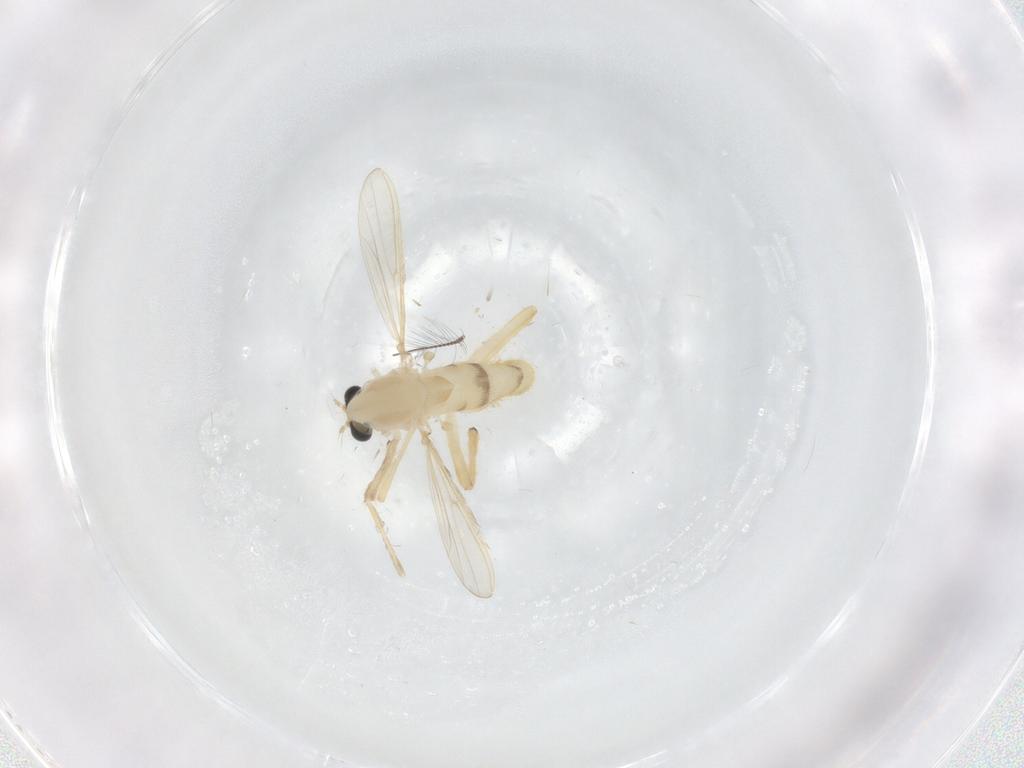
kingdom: Animalia
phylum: Arthropoda
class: Insecta
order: Diptera
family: Chironomidae
